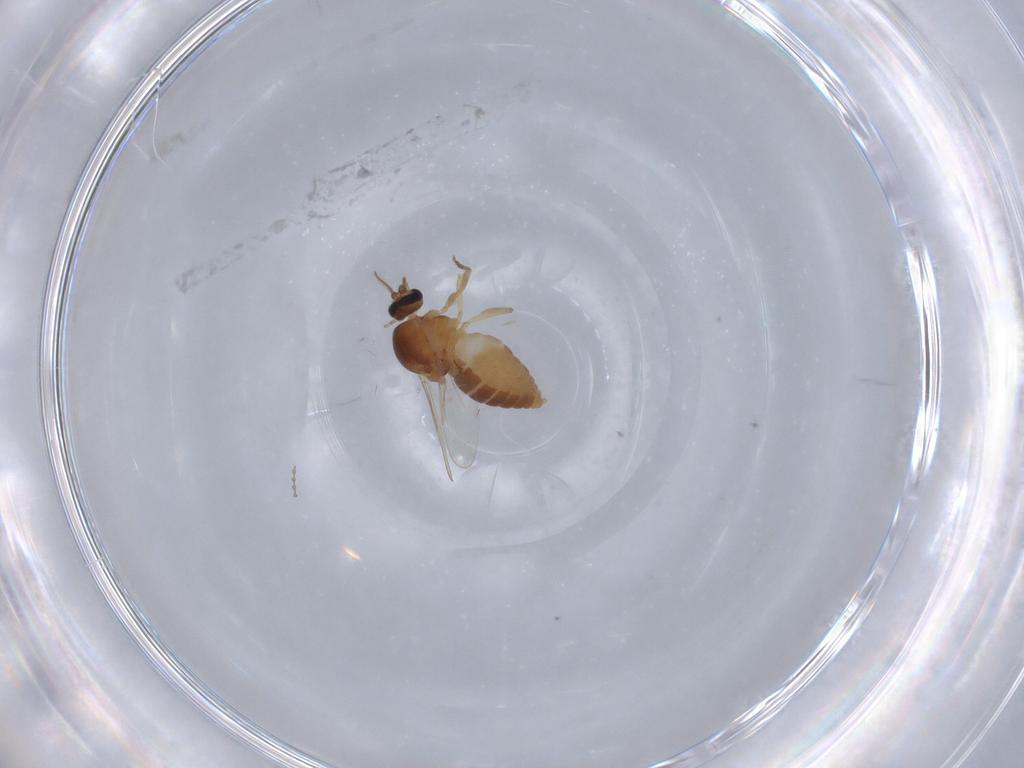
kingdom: Animalia
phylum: Arthropoda
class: Insecta
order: Diptera
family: Ceratopogonidae
